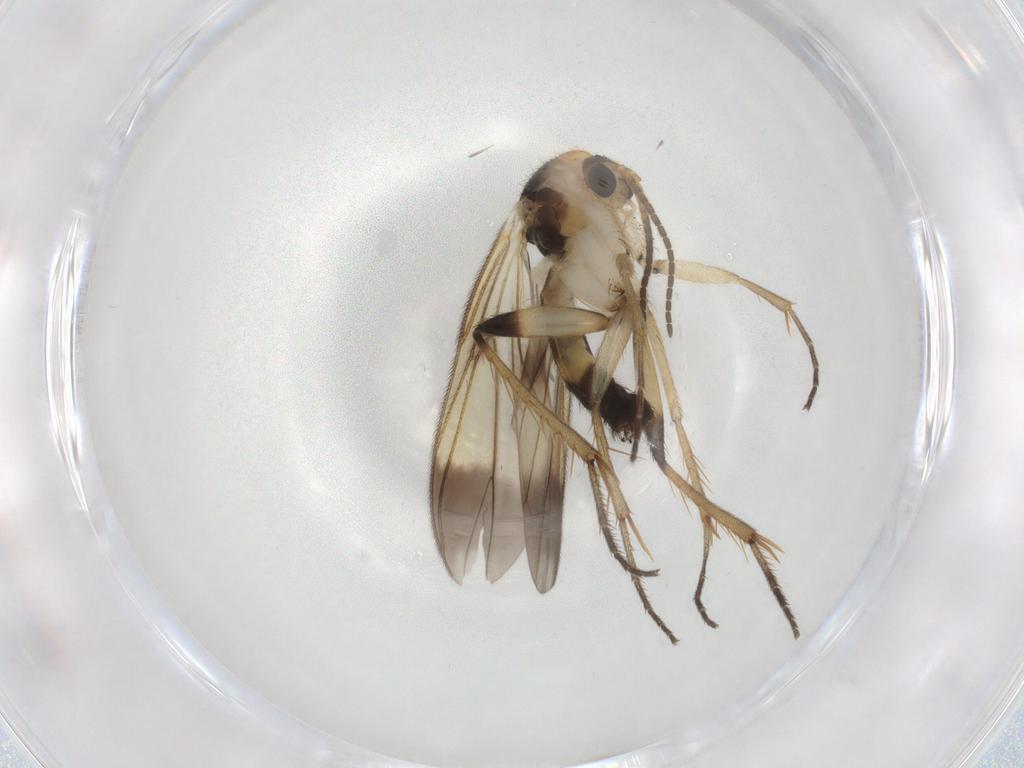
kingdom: Animalia
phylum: Arthropoda
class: Insecta
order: Diptera
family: Mycetophilidae
